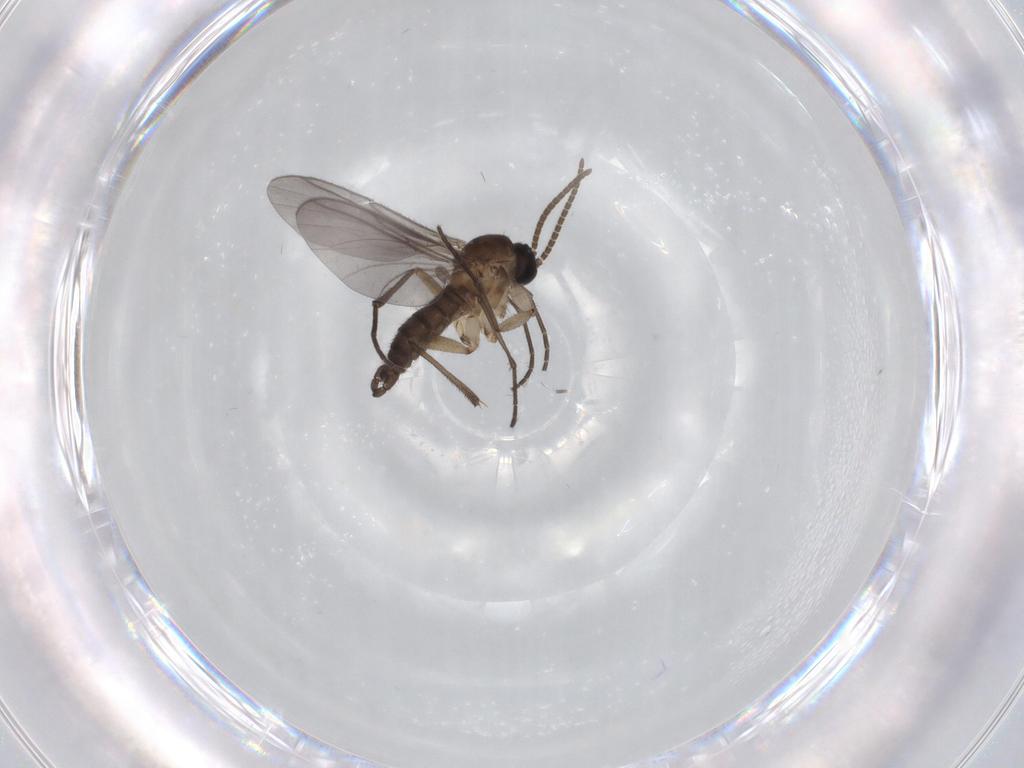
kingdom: Animalia
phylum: Arthropoda
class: Insecta
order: Diptera
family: Sciaridae
